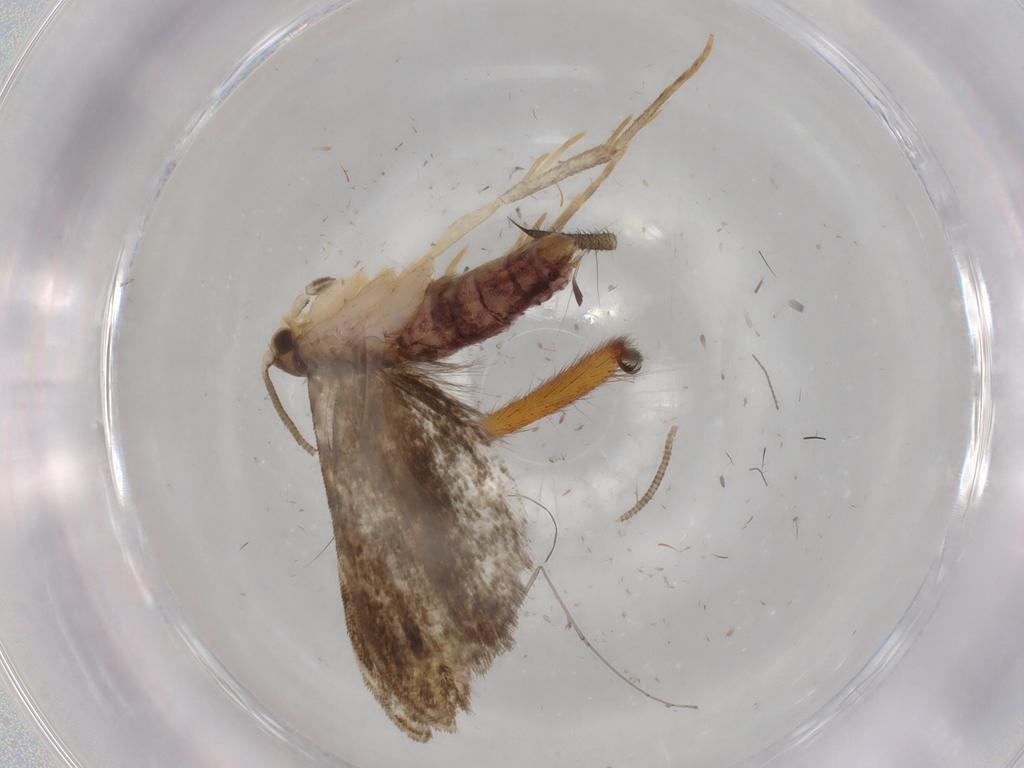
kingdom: Animalia
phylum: Arthropoda
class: Insecta
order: Lepidoptera
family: Dryadaulidae
